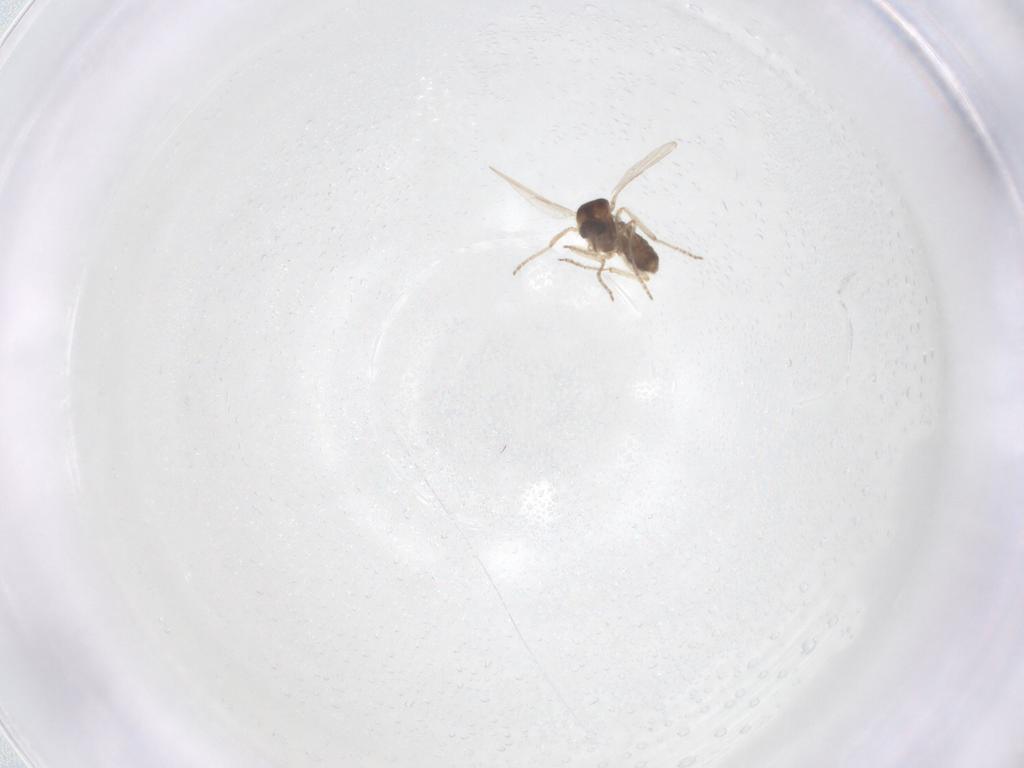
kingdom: Animalia
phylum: Arthropoda
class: Insecta
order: Diptera
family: Ceratopogonidae
